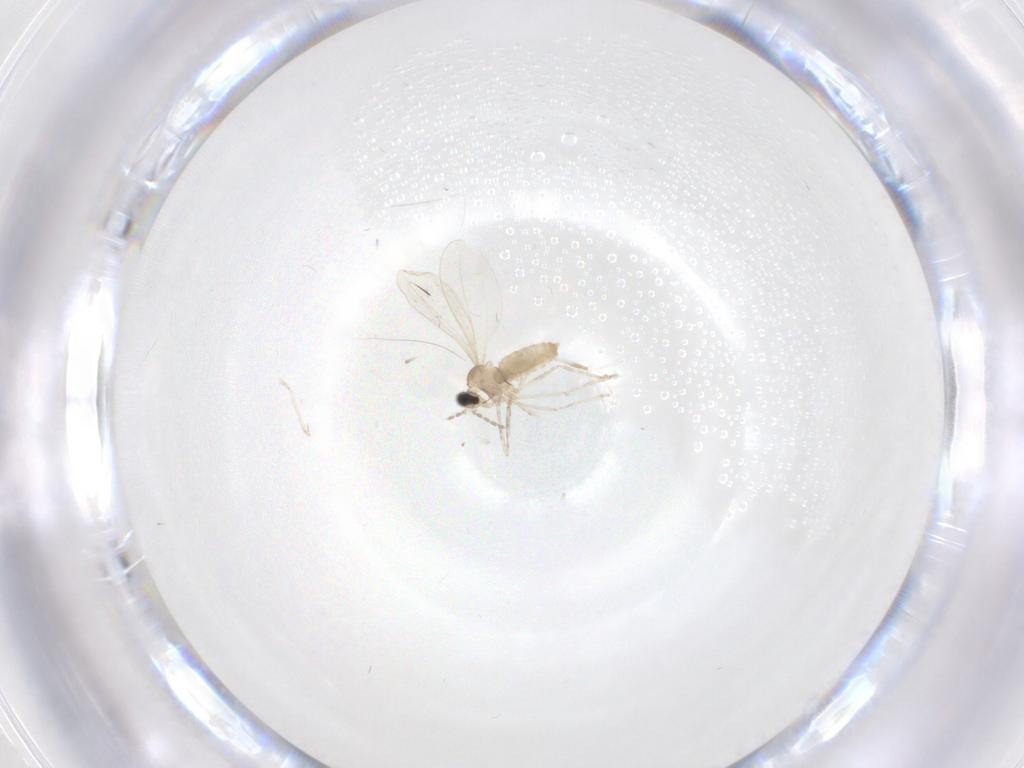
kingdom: Animalia
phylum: Arthropoda
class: Insecta
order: Diptera
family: Cecidomyiidae
